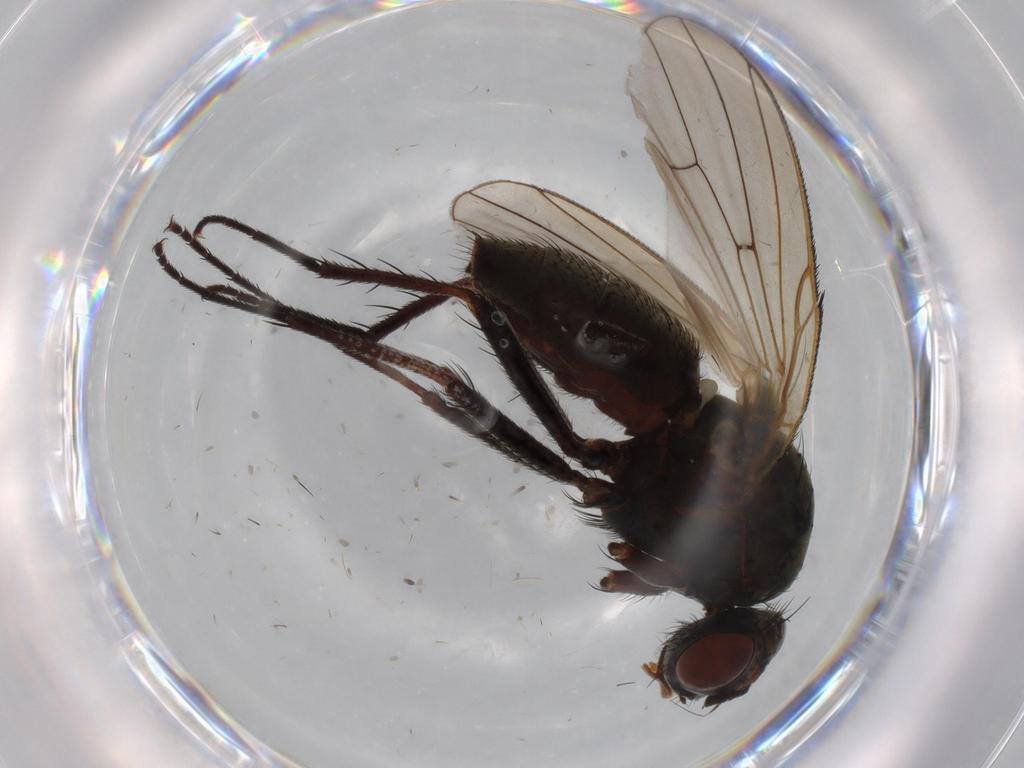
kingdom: Animalia
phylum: Arthropoda
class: Insecta
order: Diptera
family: Anthomyiidae
